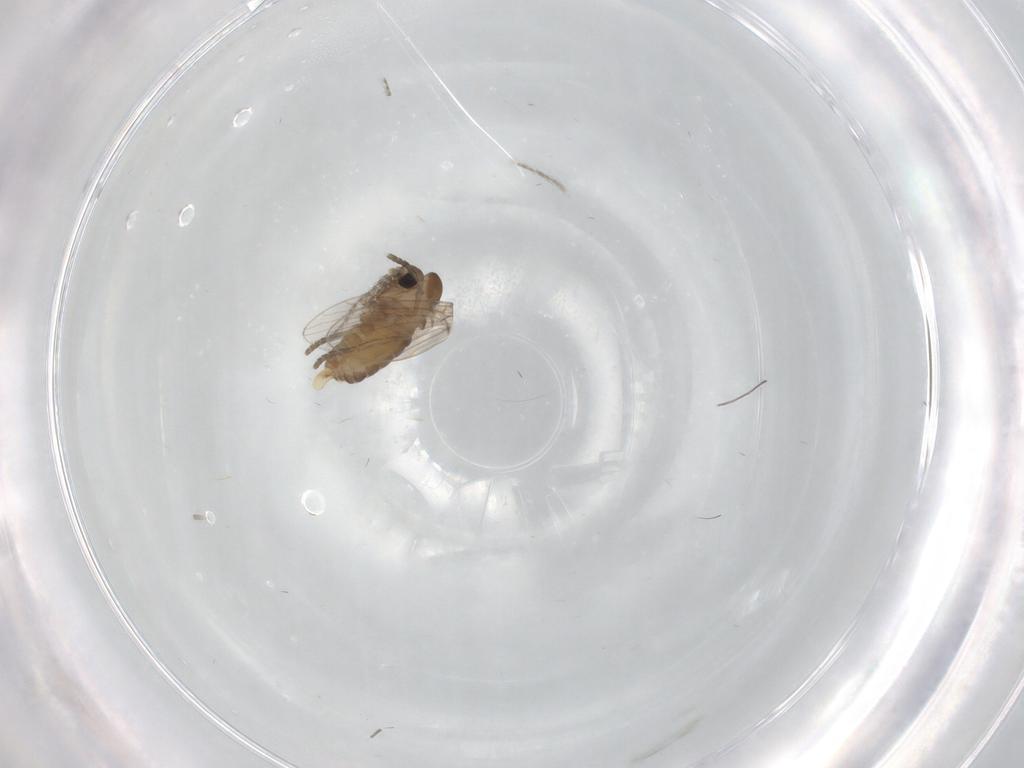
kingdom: Animalia
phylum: Arthropoda
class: Insecta
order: Diptera
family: Psychodidae
